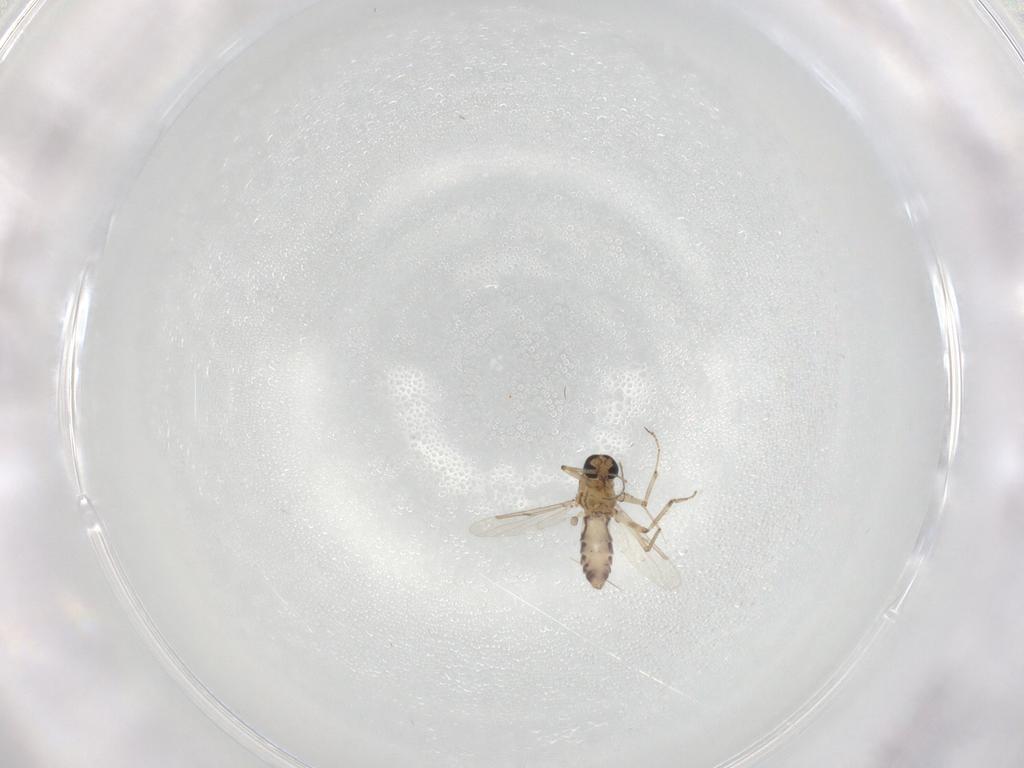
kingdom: Animalia
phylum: Arthropoda
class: Insecta
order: Diptera
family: Ceratopogonidae
